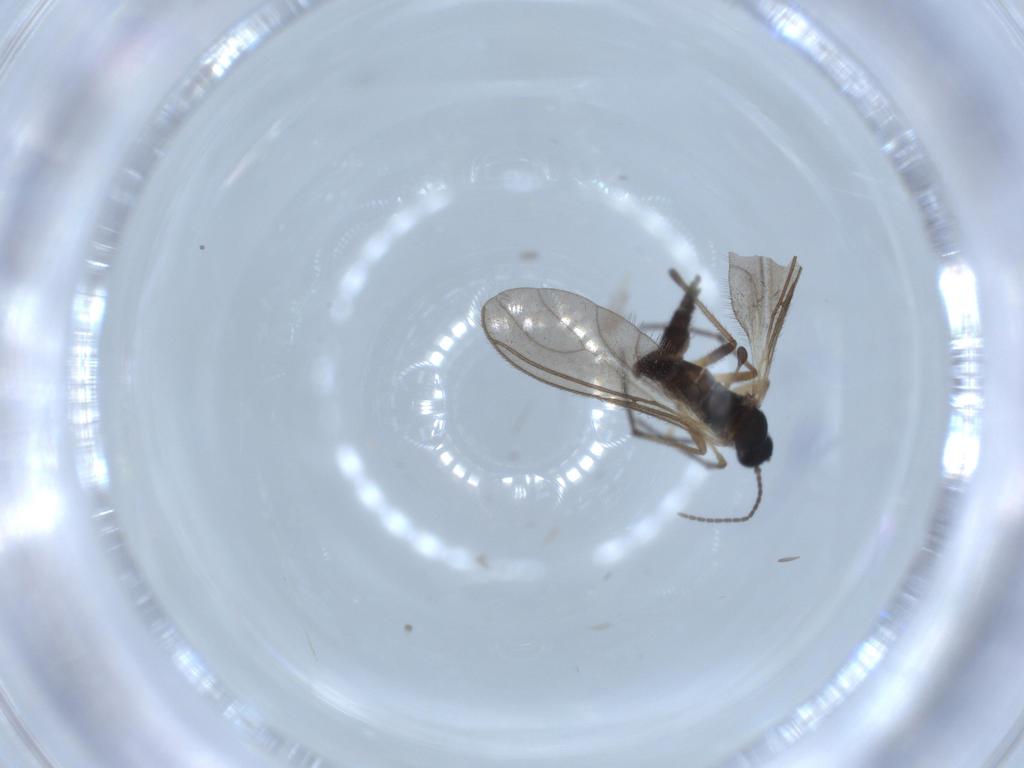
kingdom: Animalia
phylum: Arthropoda
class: Insecta
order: Diptera
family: Sciaridae
